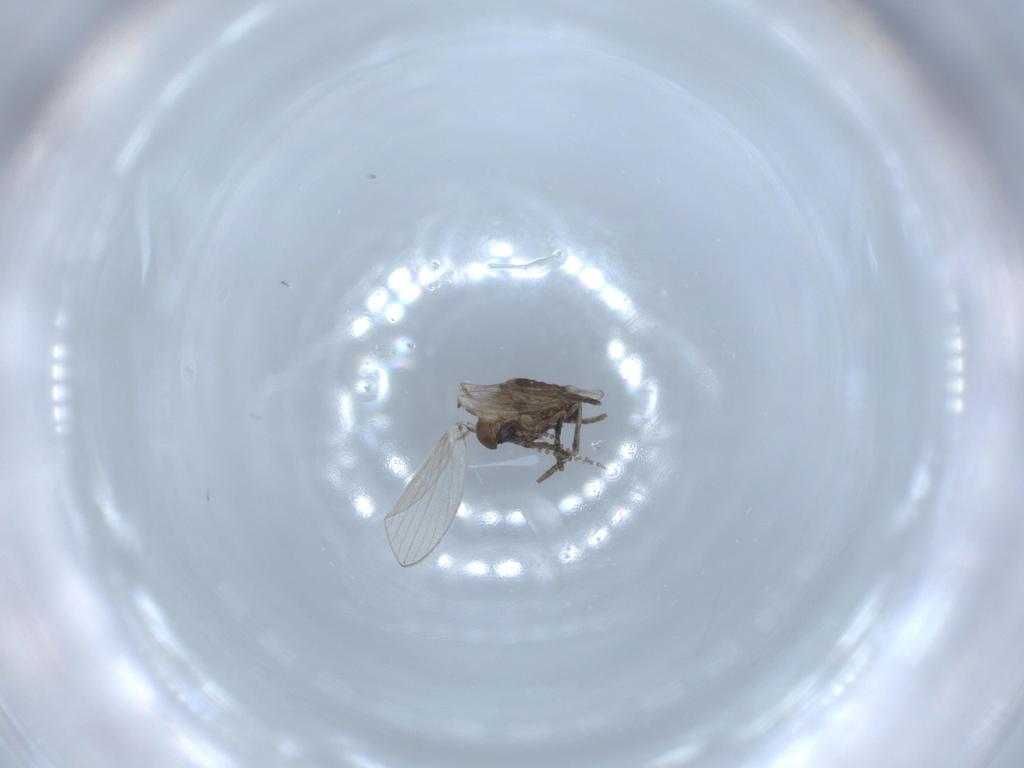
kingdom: Animalia
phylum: Arthropoda
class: Insecta
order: Diptera
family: Psychodidae
